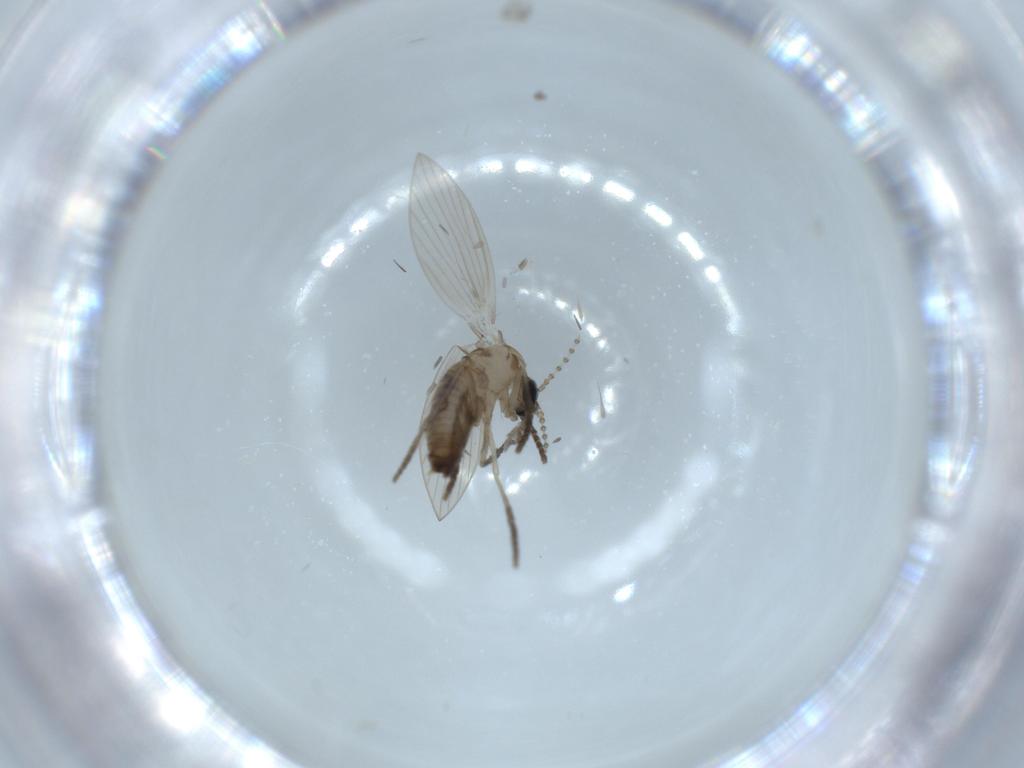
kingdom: Animalia
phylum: Arthropoda
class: Insecta
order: Diptera
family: Psychodidae
